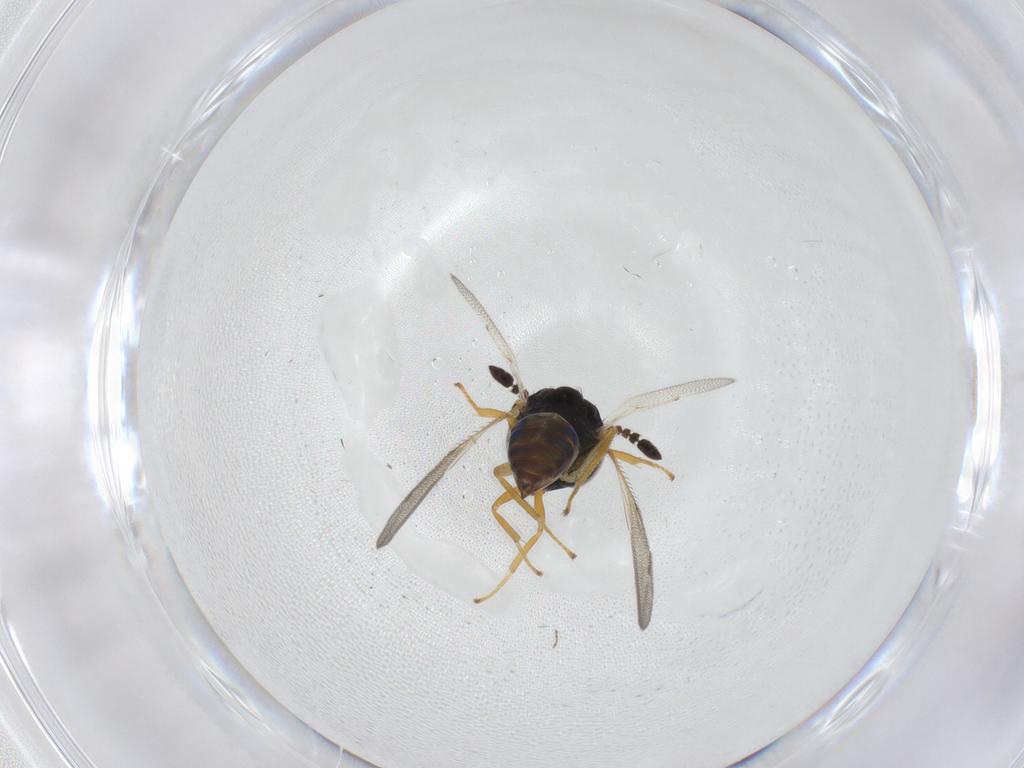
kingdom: Animalia
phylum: Arthropoda
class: Insecta
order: Hymenoptera
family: Pteromalidae
